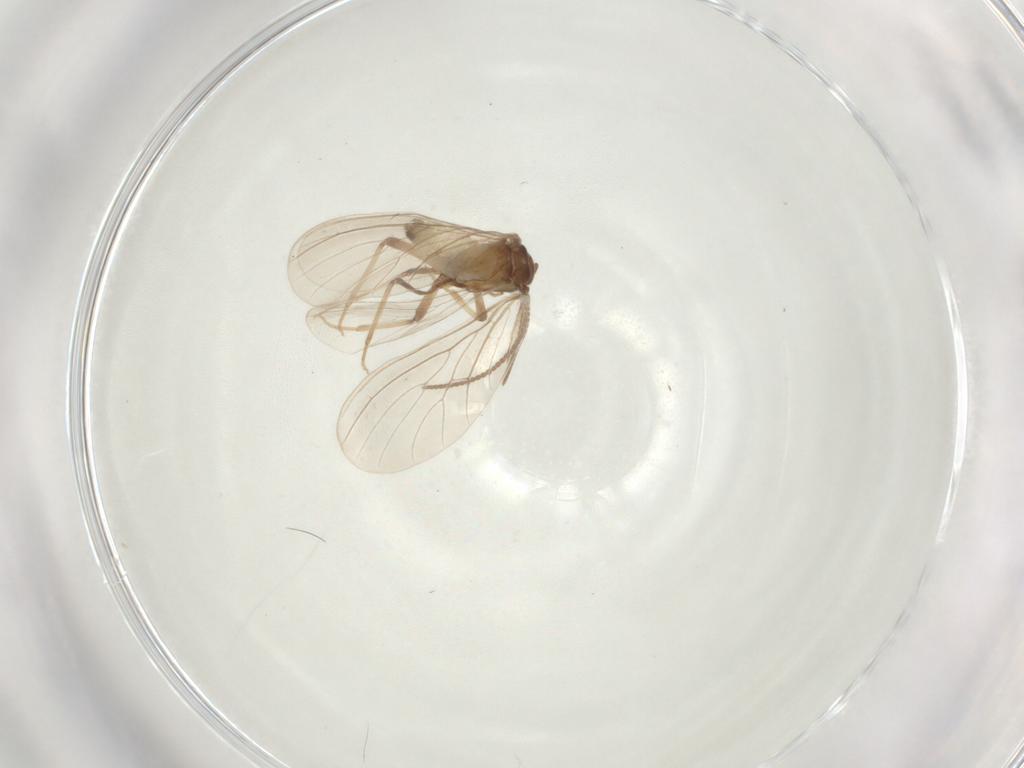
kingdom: Animalia
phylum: Arthropoda
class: Insecta
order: Neuroptera
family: Coniopterygidae
